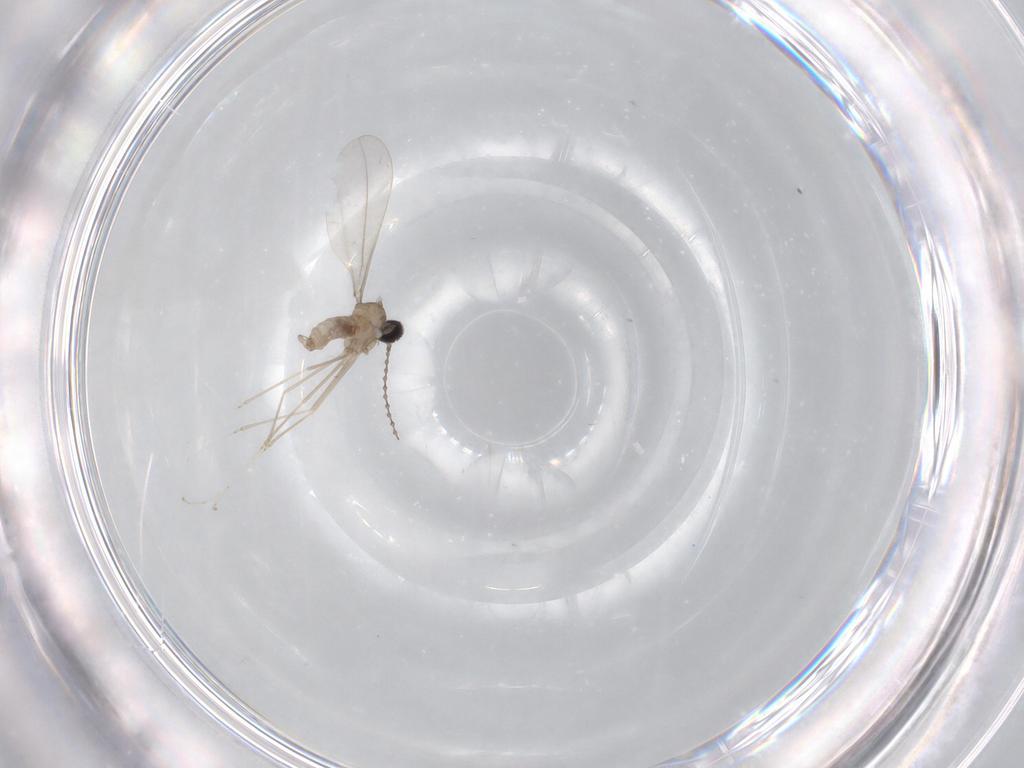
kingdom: Animalia
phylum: Arthropoda
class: Insecta
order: Diptera
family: Cecidomyiidae
